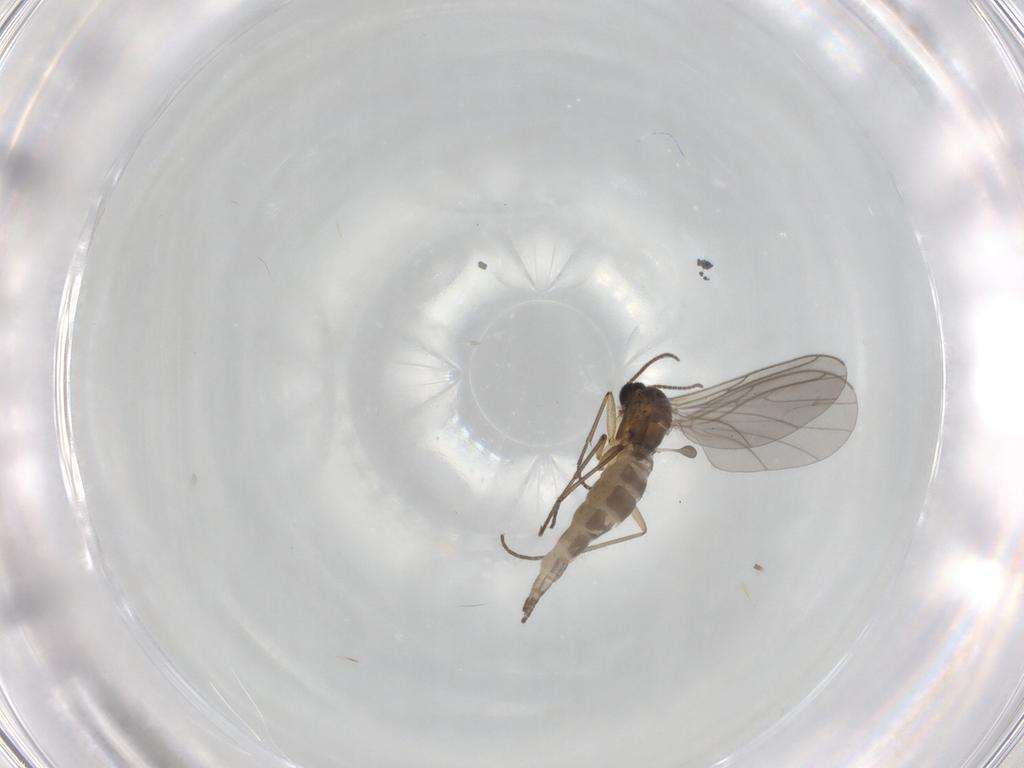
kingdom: Animalia
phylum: Arthropoda
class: Insecta
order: Diptera
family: Sciaridae
